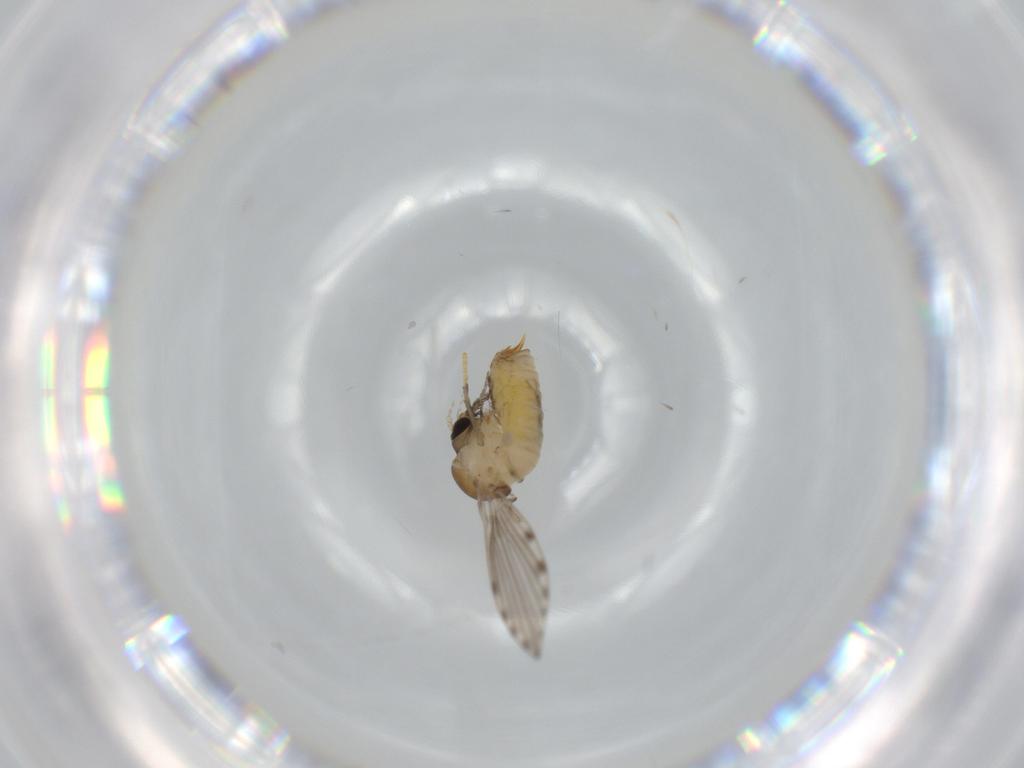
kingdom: Animalia
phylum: Arthropoda
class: Insecta
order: Diptera
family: Psychodidae
